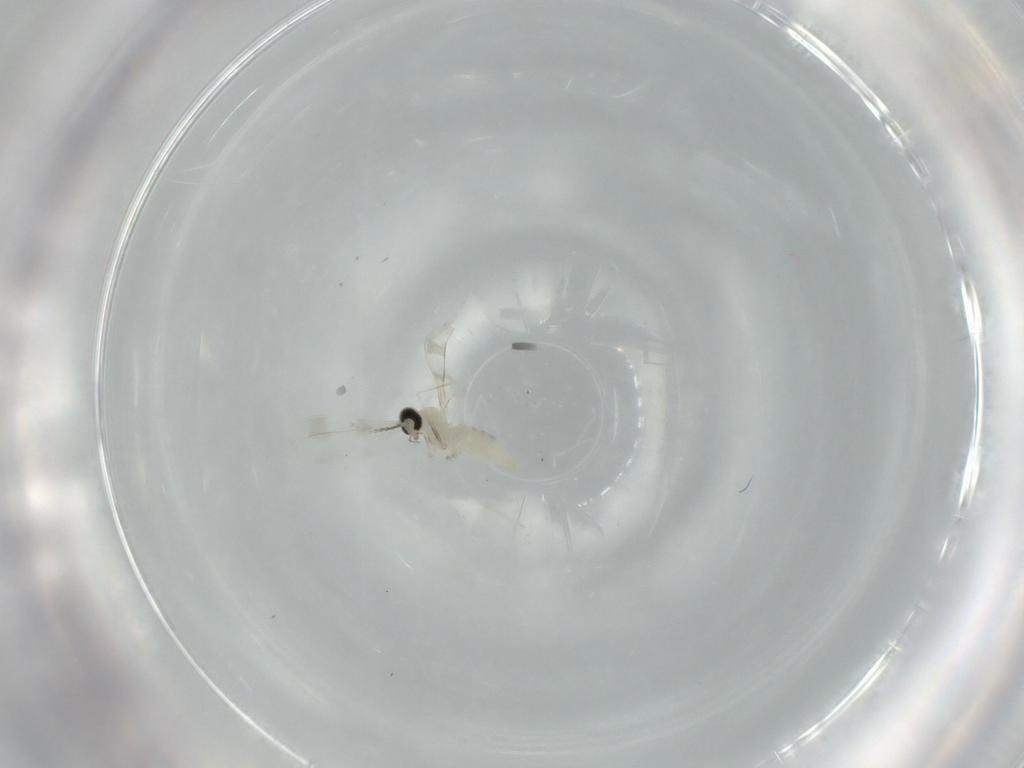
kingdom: Animalia
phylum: Arthropoda
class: Insecta
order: Diptera
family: Cecidomyiidae
